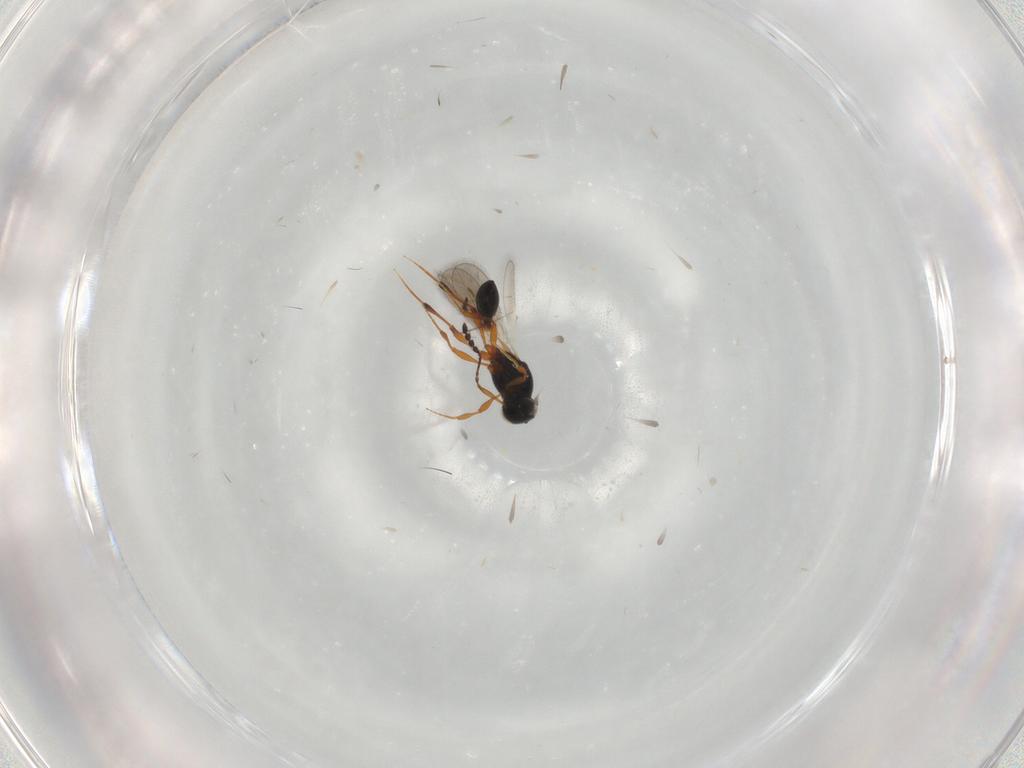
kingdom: Animalia
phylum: Arthropoda
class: Insecta
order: Hymenoptera
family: Platygastridae
